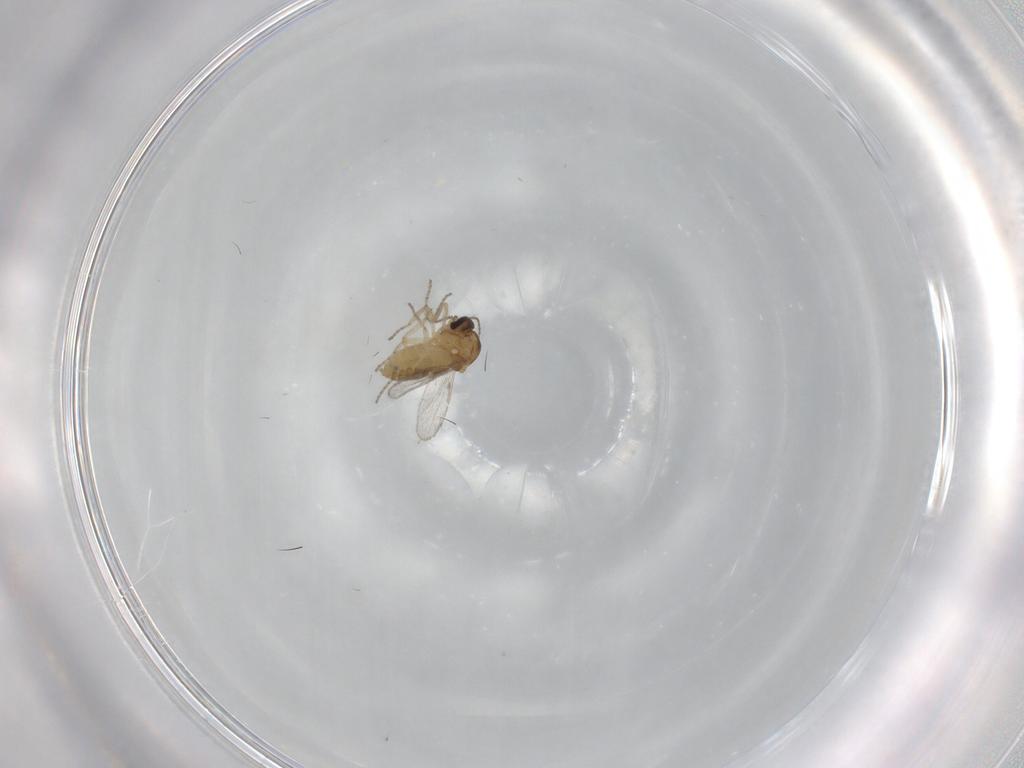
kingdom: Animalia
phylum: Arthropoda
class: Insecta
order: Diptera
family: Ceratopogonidae
